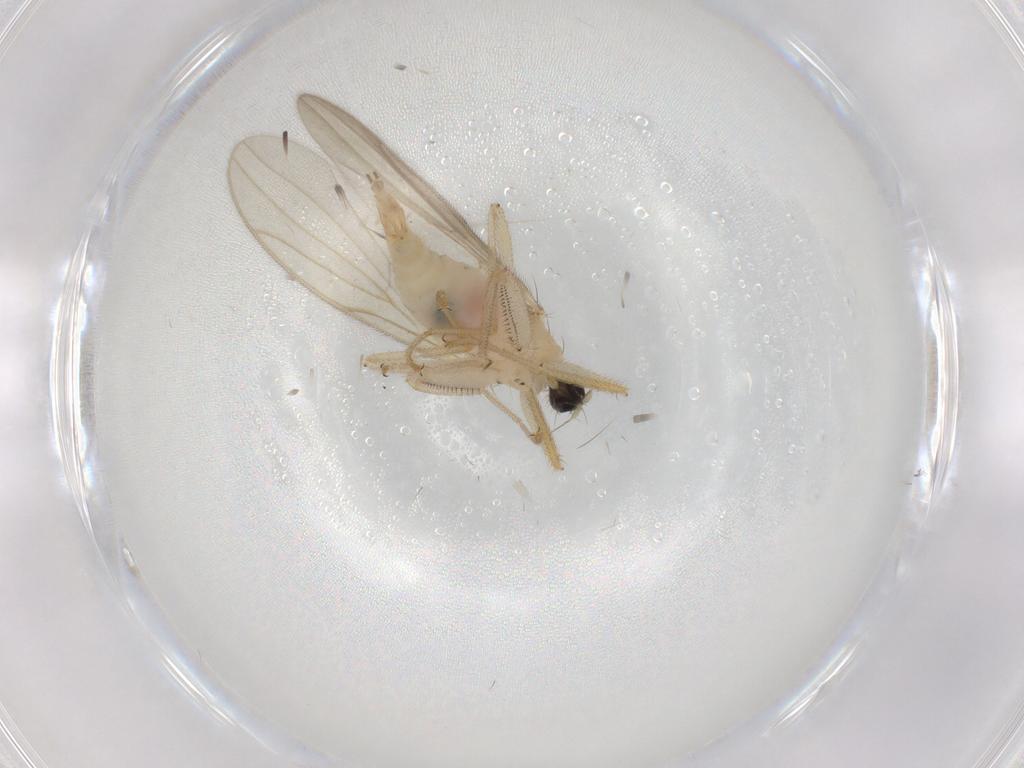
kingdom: Animalia
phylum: Arthropoda
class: Insecta
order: Diptera
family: Hybotidae
